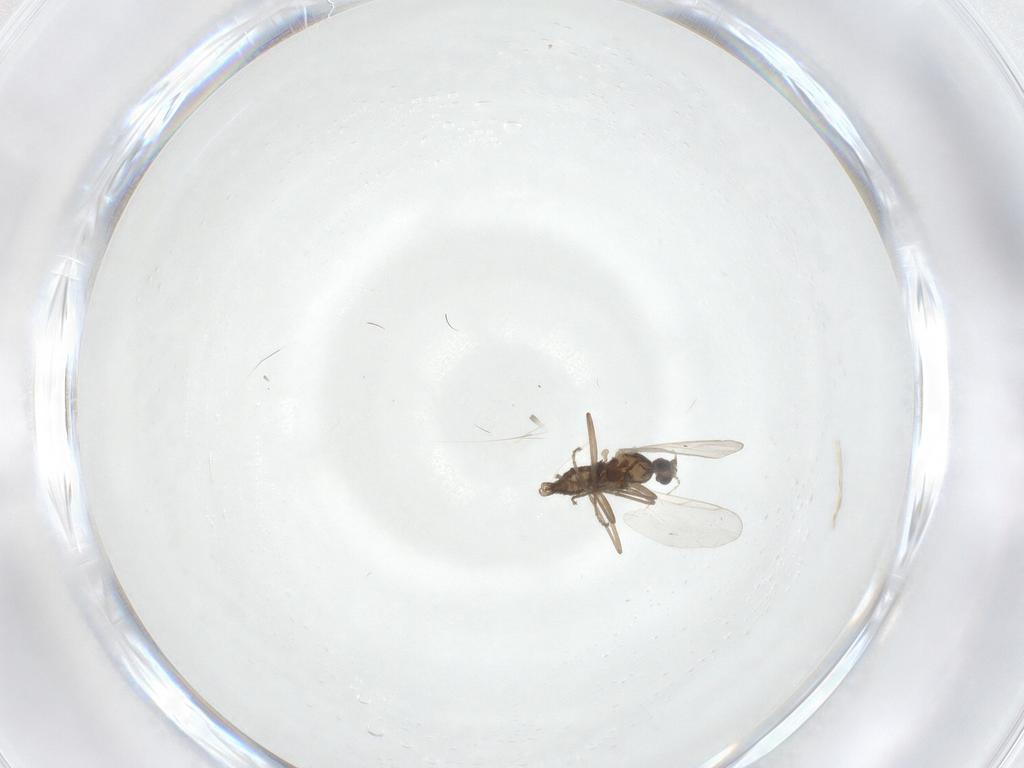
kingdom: Animalia
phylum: Arthropoda
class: Insecta
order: Diptera
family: Cecidomyiidae
